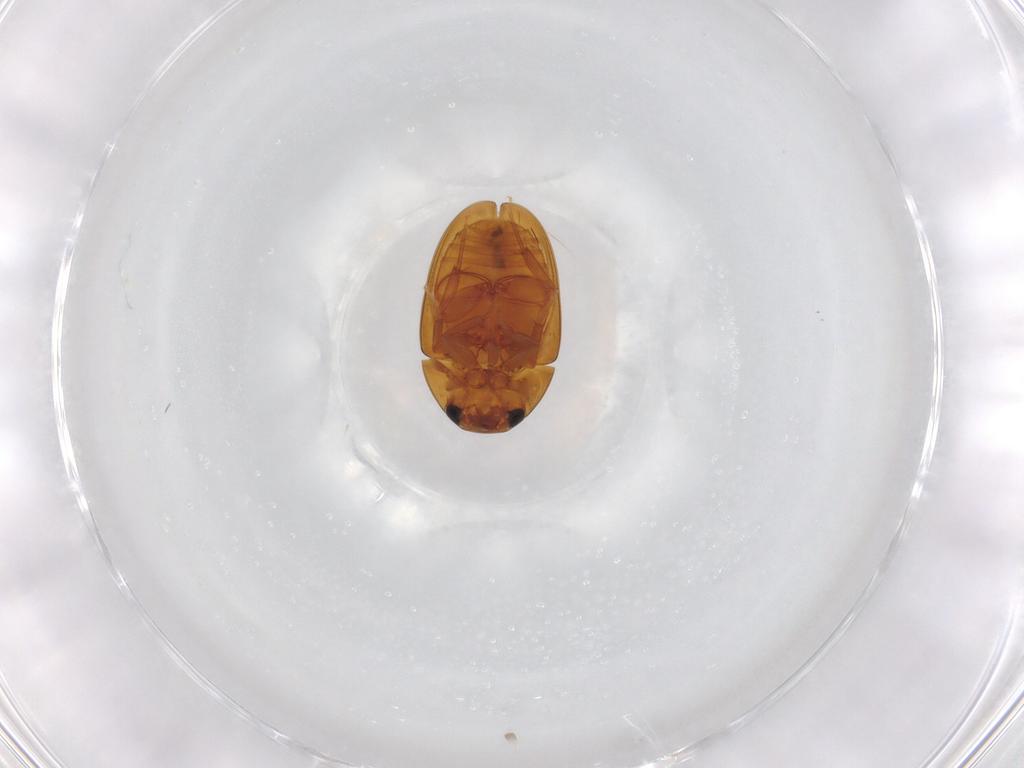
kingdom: Animalia
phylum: Arthropoda
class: Insecta
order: Coleoptera
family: Phalacridae
